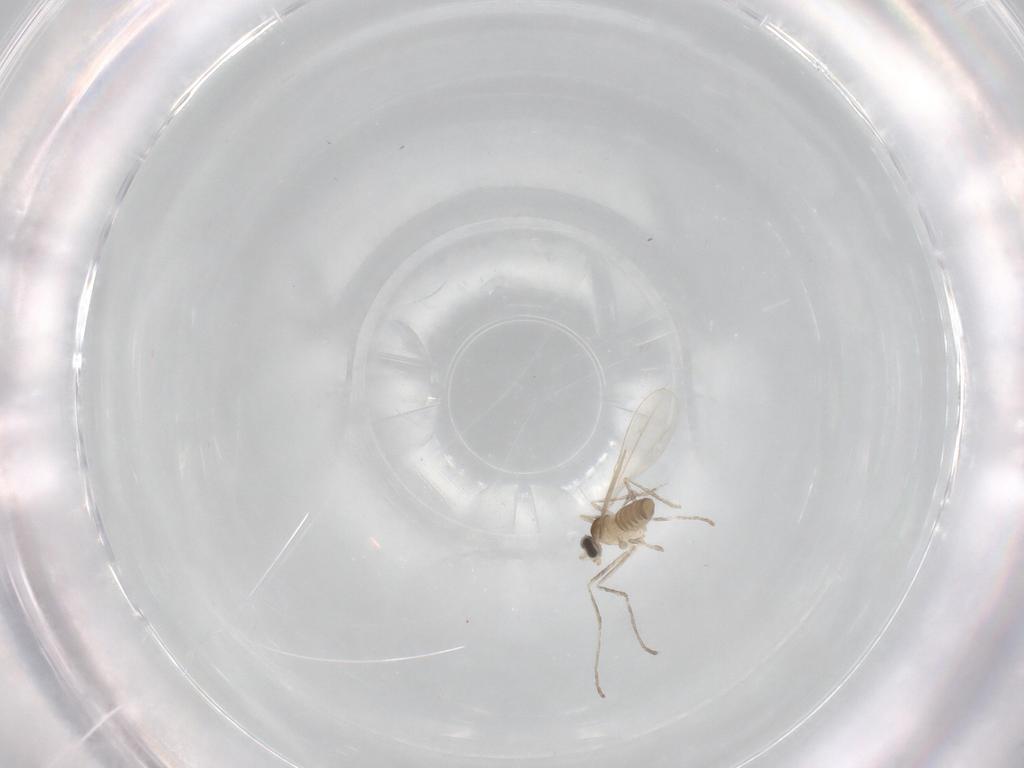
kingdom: Animalia
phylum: Arthropoda
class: Insecta
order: Diptera
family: Cecidomyiidae
